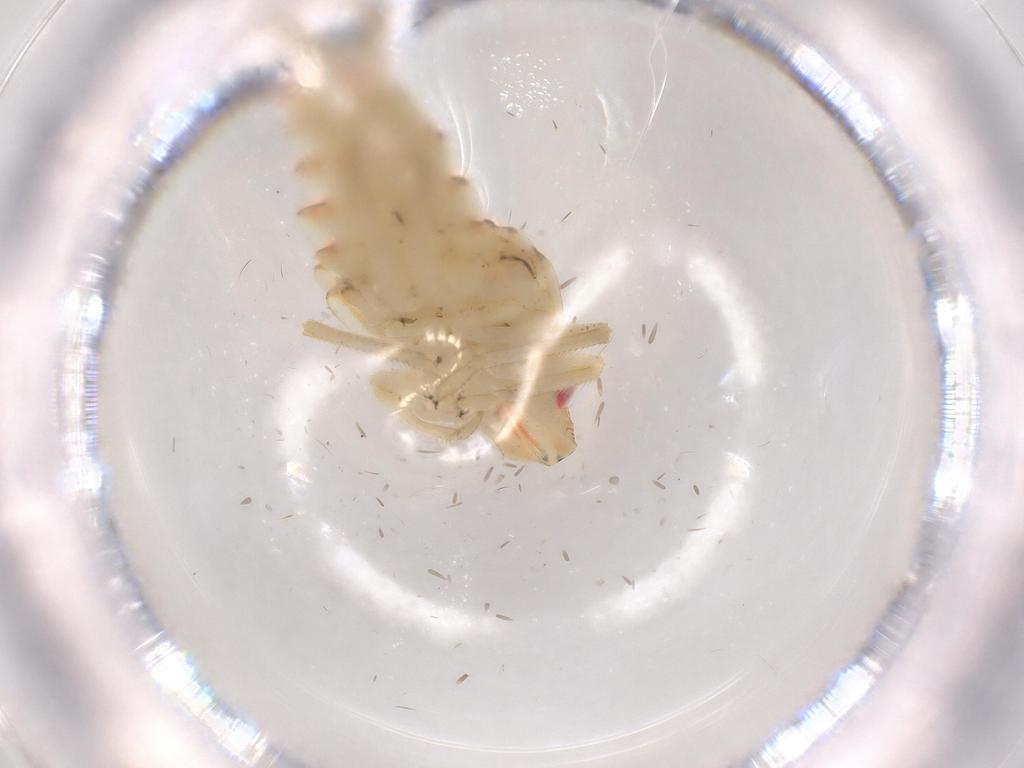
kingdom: Animalia
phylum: Arthropoda
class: Insecta
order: Hemiptera
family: Tropiduchidae
